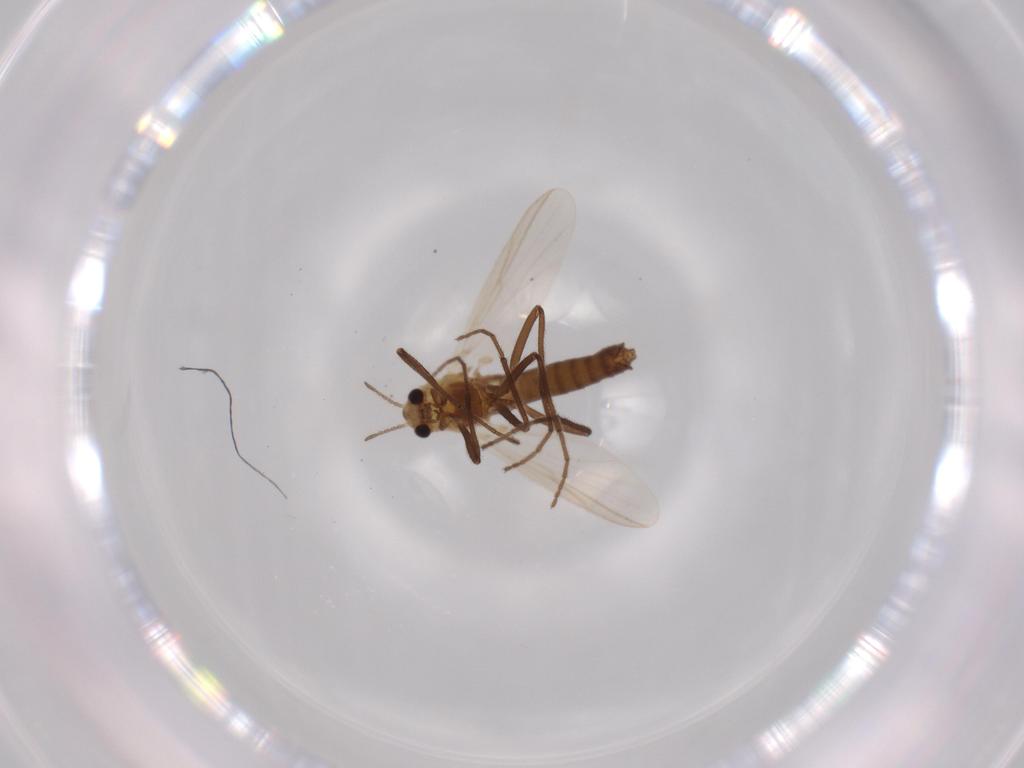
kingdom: Animalia
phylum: Arthropoda
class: Insecta
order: Diptera
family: Chironomidae
